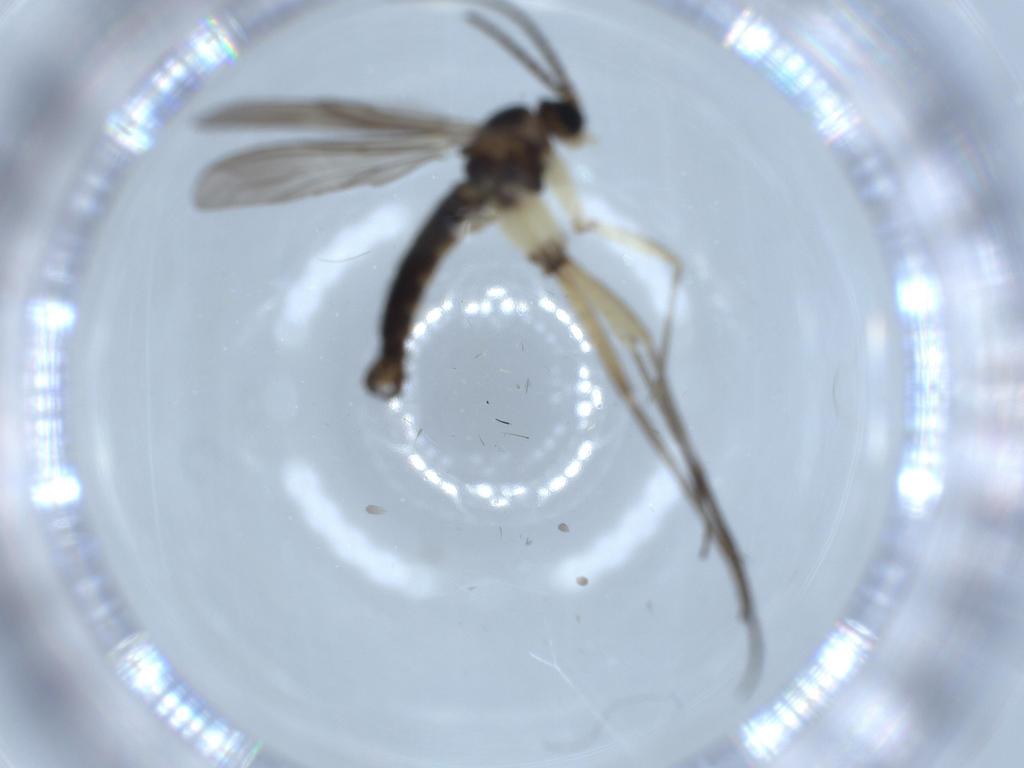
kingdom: Animalia
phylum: Arthropoda
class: Insecta
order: Diptera
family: Sciaridae
